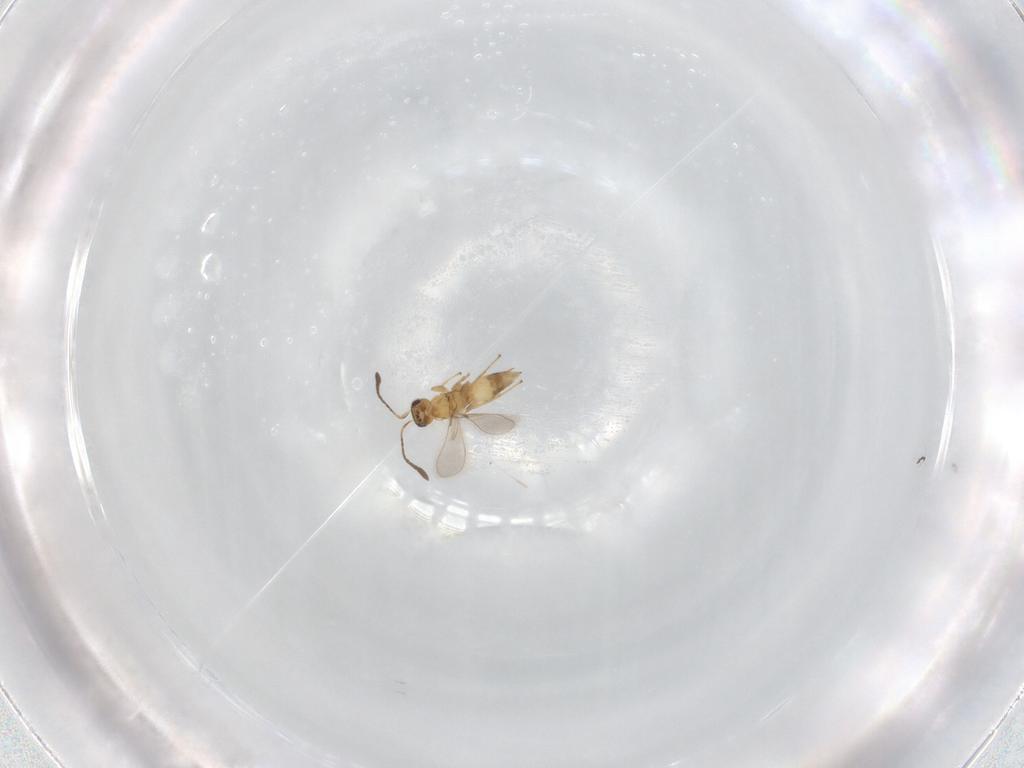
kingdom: Animalia
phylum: Arthropoda
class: Insecta
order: Hymenoptera
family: Mymaridae
